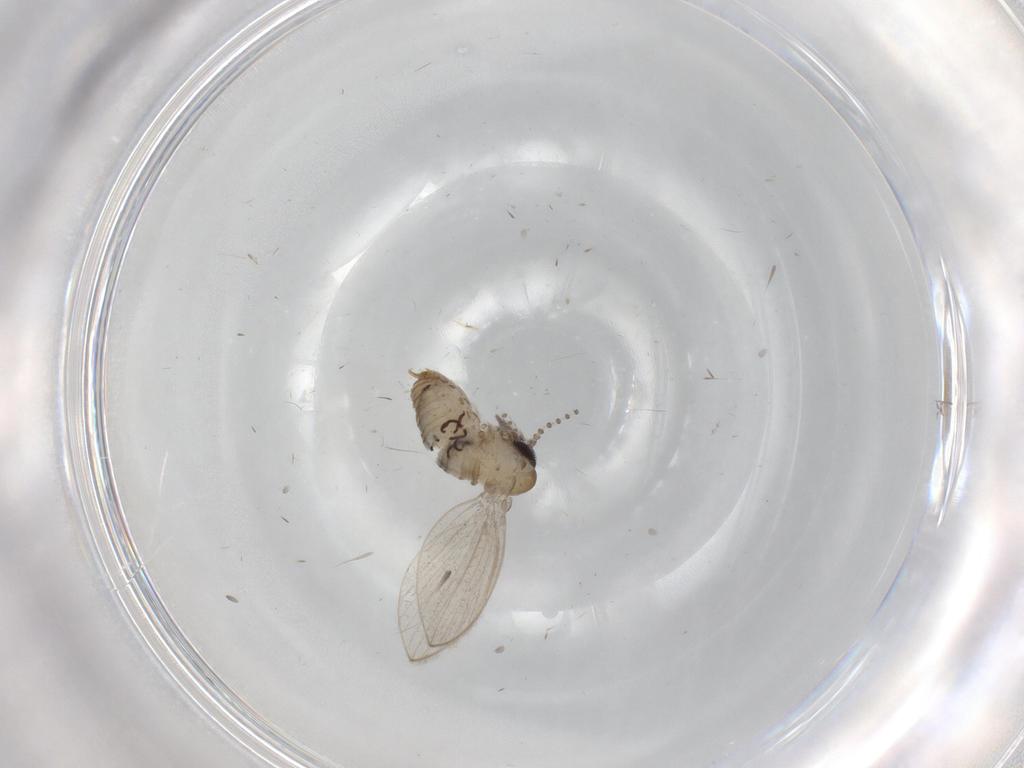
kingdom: Animalia
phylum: Arthropoda
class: Insecta
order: Diptera
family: Psychodidae
